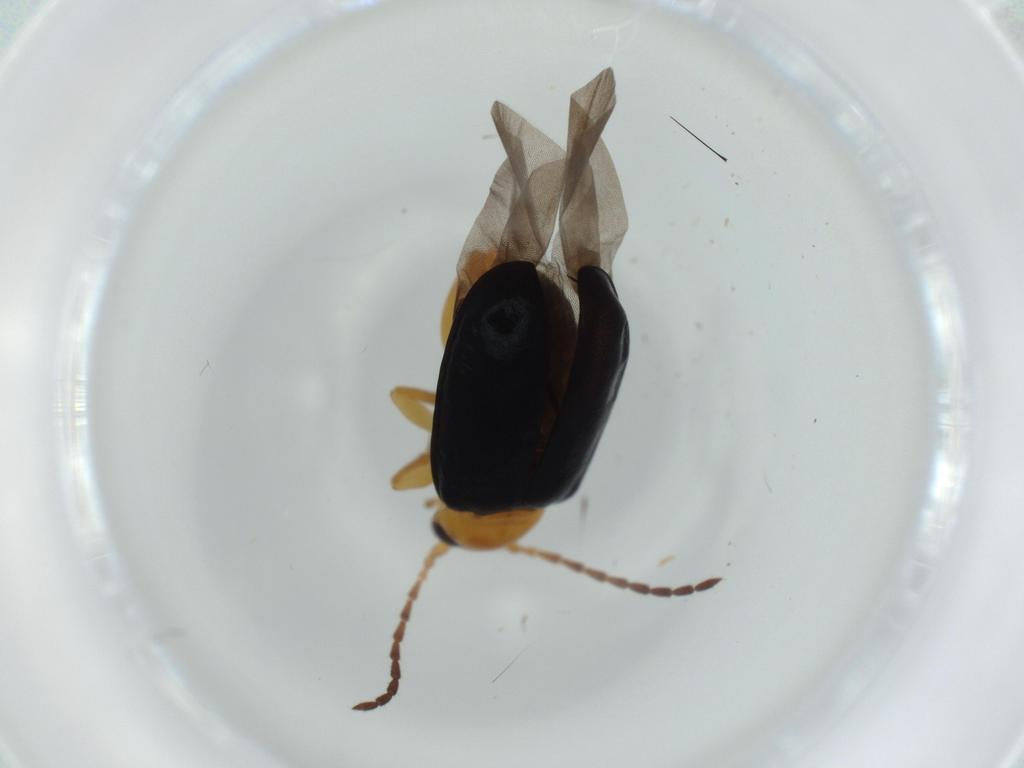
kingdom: Animalia
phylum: Arthropoda
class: Insecta
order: Coleoptera
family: Chrysomelidae
